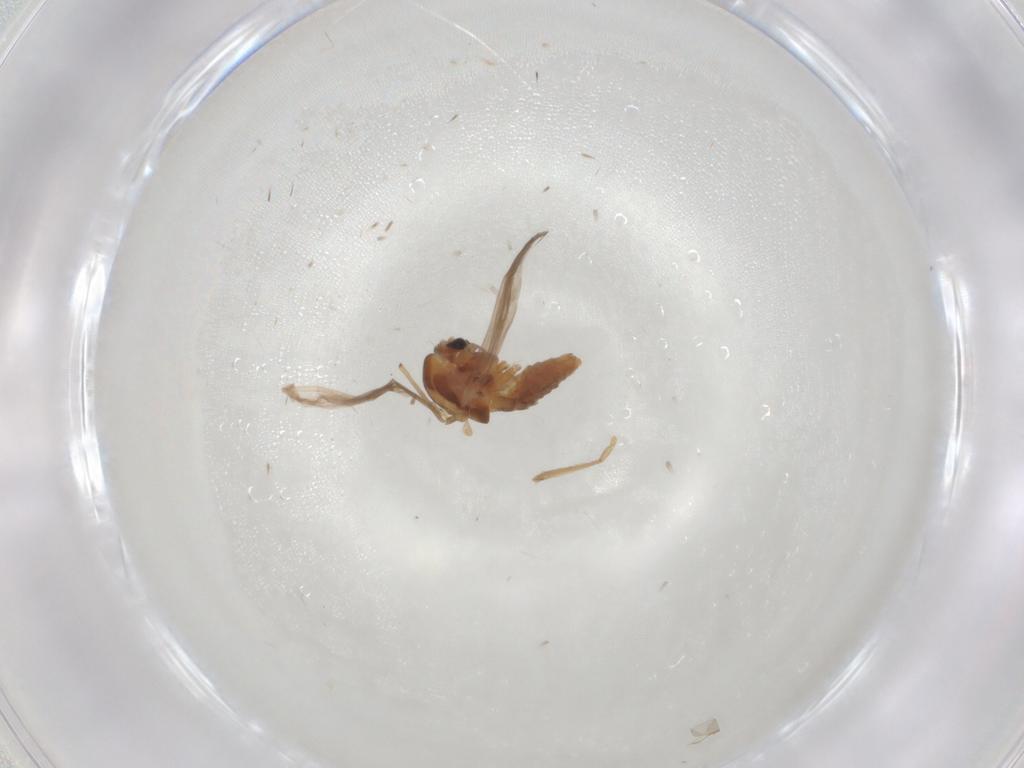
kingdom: Animalia
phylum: Arthropoda
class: Insecta
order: Diptera
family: Chironomidae
